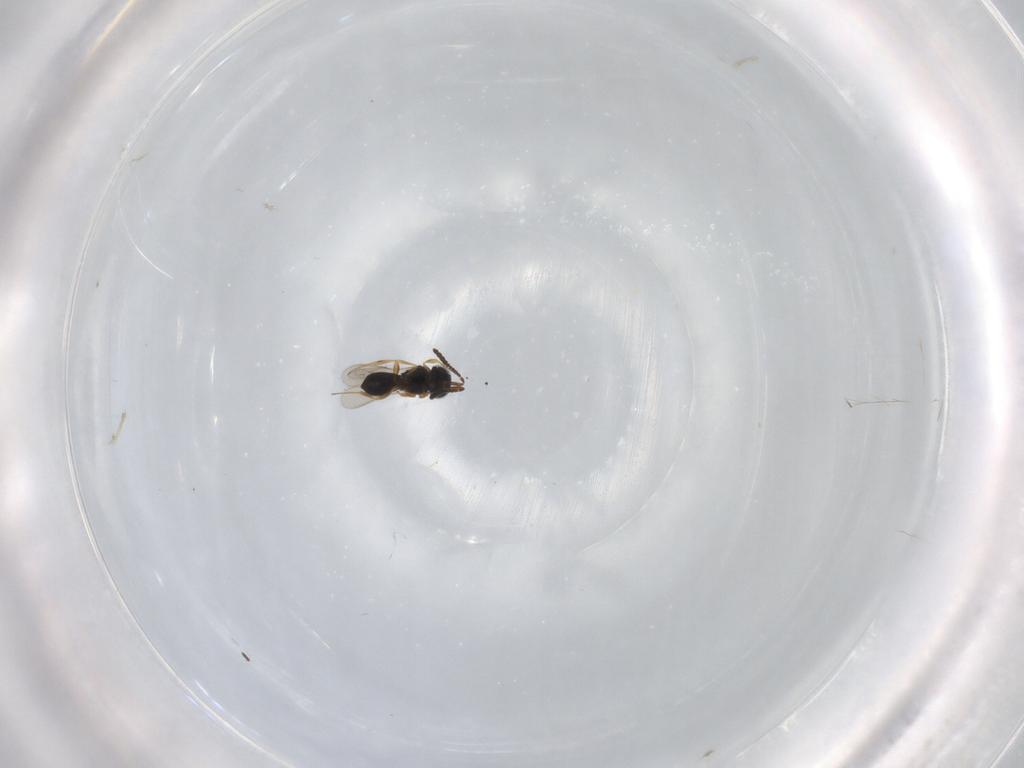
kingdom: Animalia
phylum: Arthropoda
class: Insecta
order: Hymenoptera
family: Scelionidae
